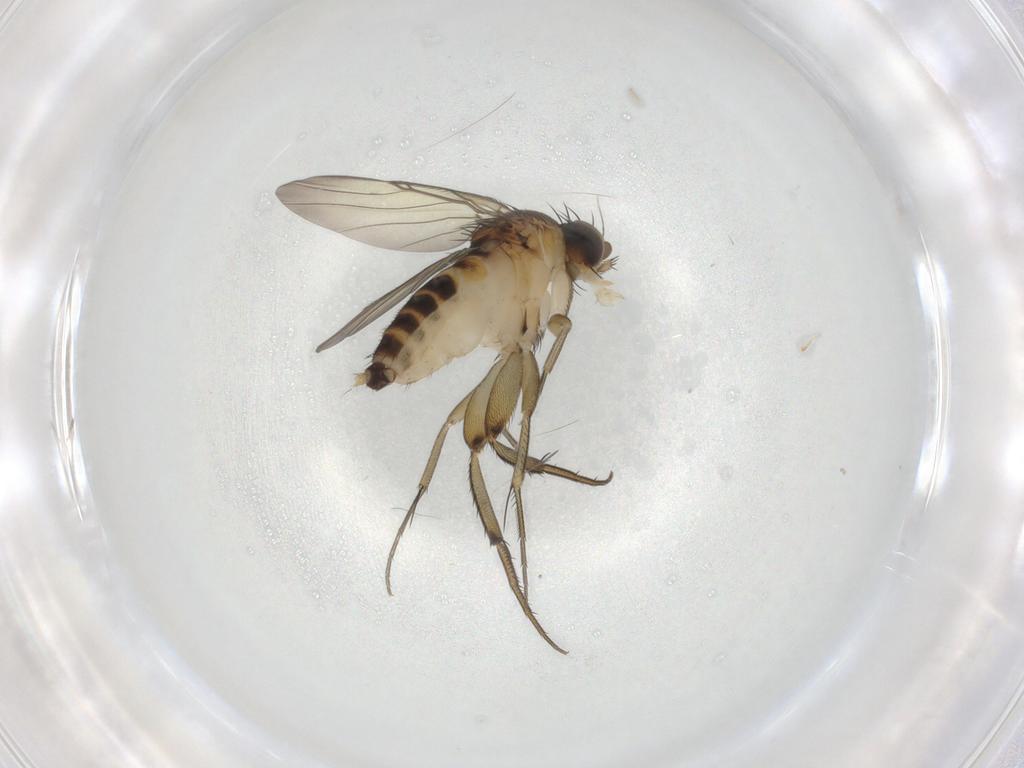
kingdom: Animalia
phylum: Arthropoda
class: Insecta
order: Diptera
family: Phoridae
